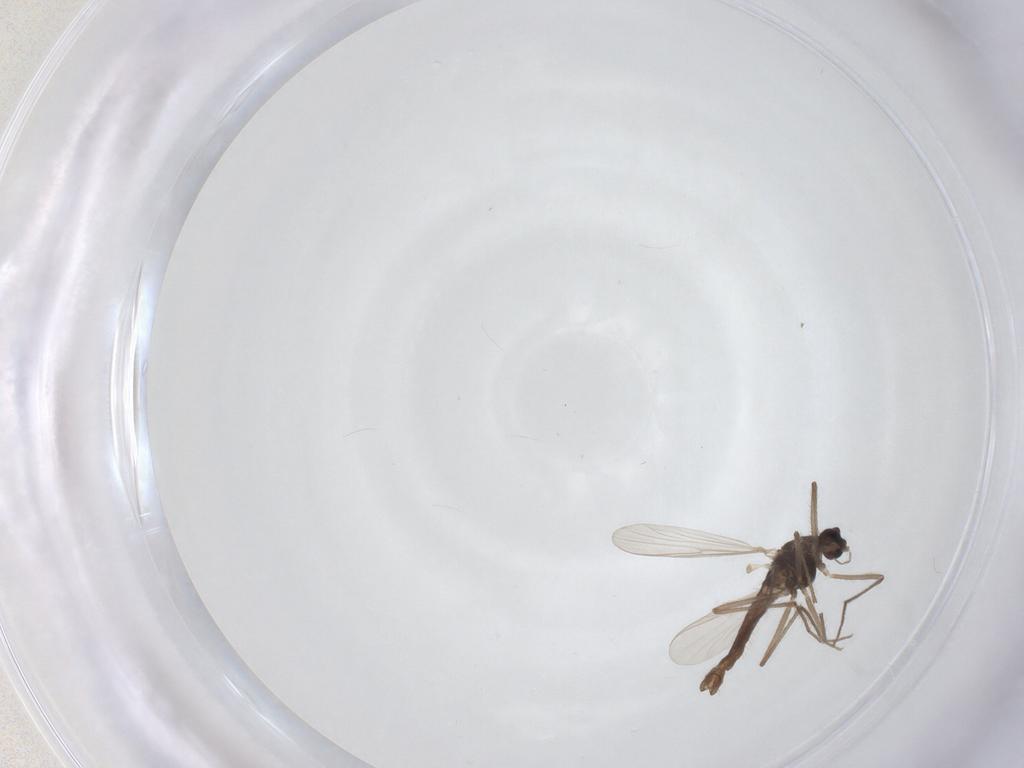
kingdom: Animalia
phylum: Arthropoda
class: Insecta
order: Diptera
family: Chironomidae
